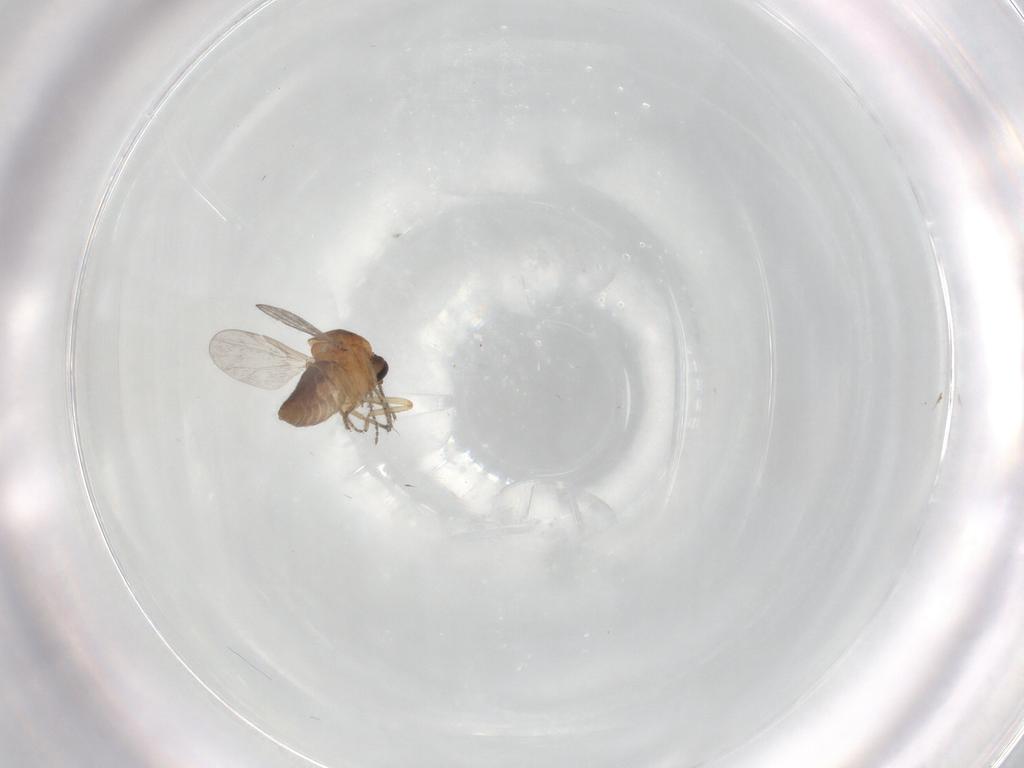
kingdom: Animalia
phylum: Arthropoda
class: Insecta
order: Diptera
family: Ceratopogonidae
